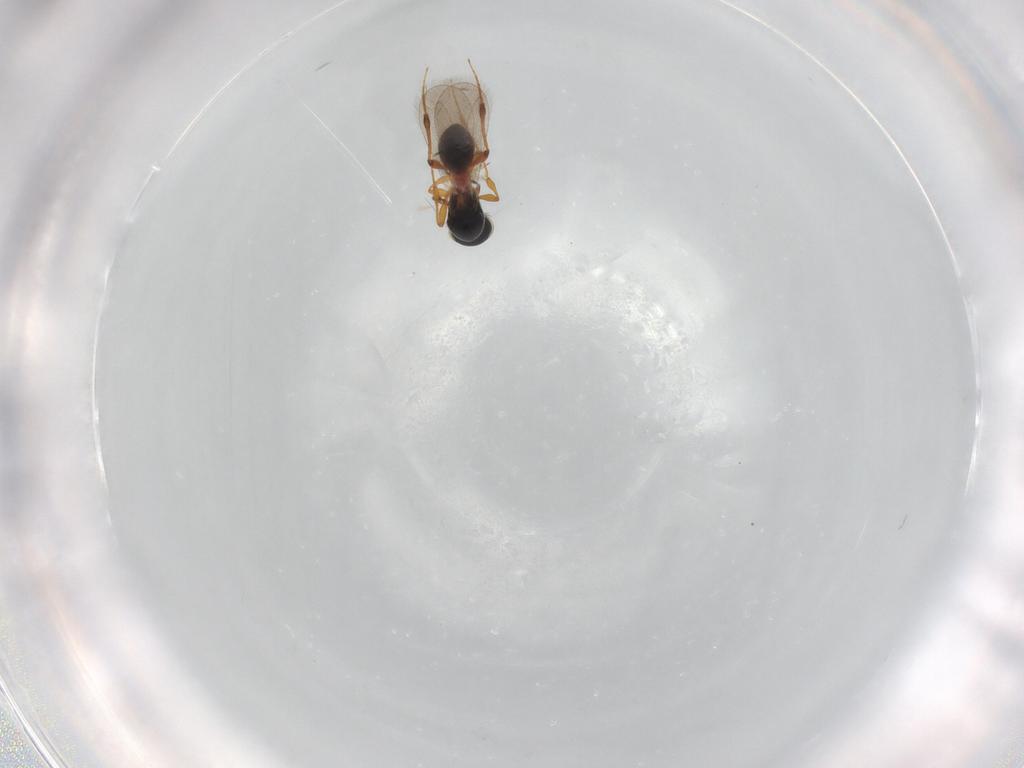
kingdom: Animalia
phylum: Arthropoda
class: Insecta
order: Hymenoptera
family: Platygastridae
